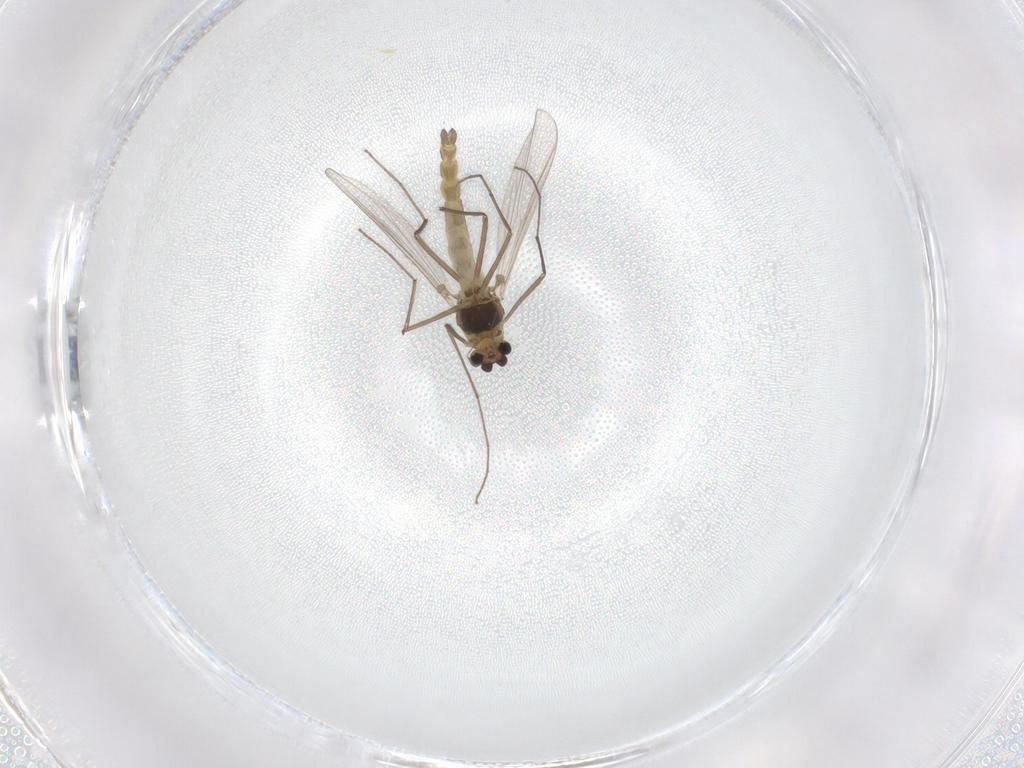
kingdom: Animalia
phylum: Arthropoda
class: Insecta
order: Diptera
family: Chironomidae
